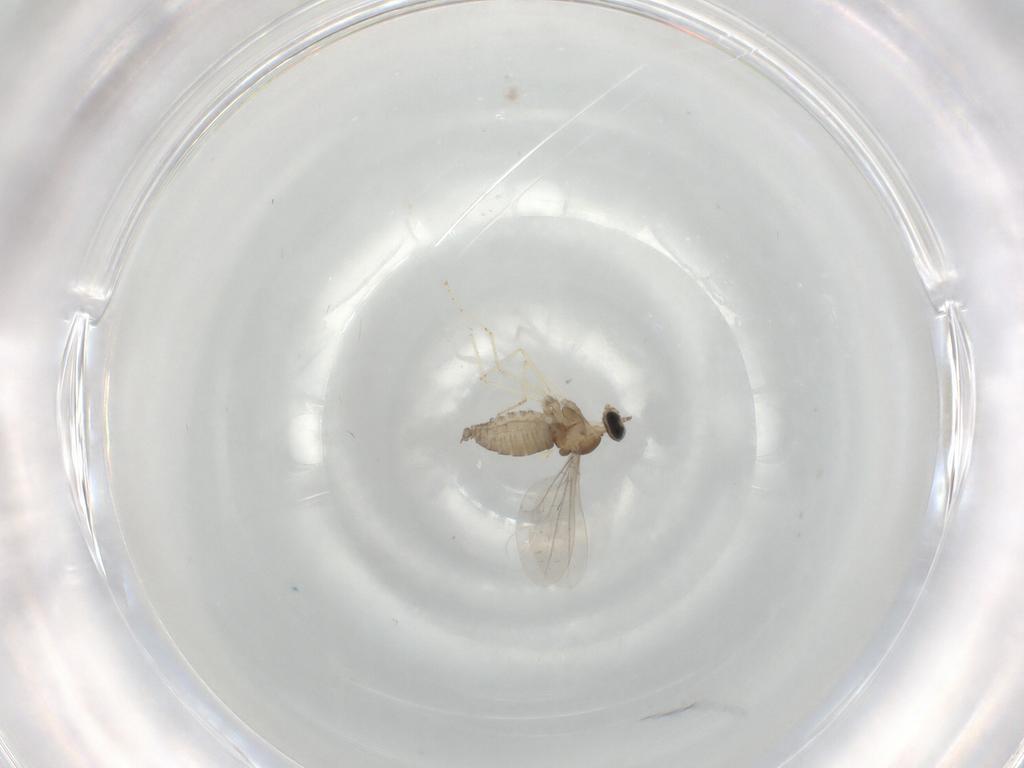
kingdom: Animalia
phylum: Arthropoda
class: Insecta
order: Diptera
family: Cecidomyiidae
